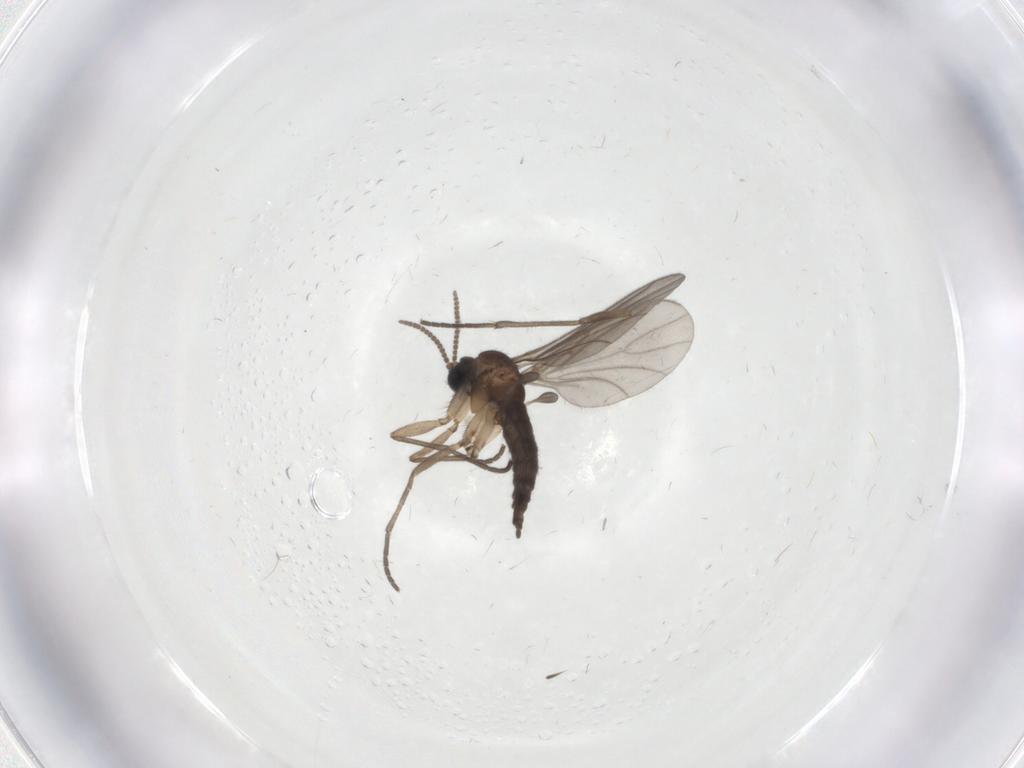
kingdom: Animalia
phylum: Arthropoda
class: Insecta
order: Diptera
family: Sciaridae
